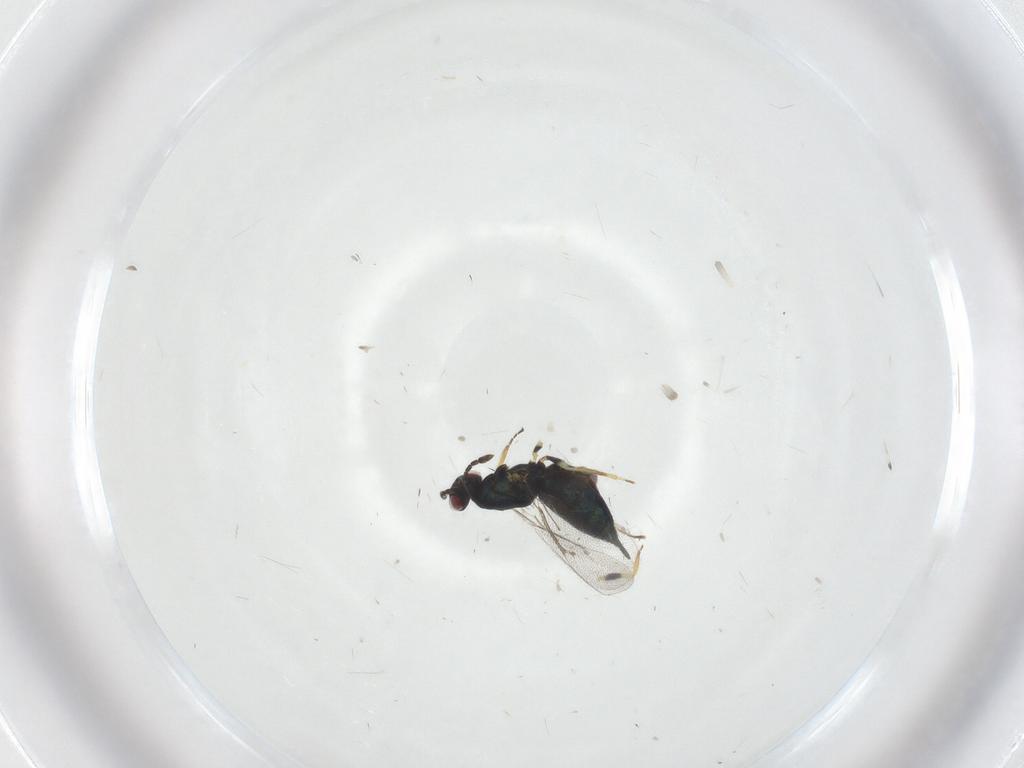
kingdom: Animalia
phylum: Arthropoda
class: Insecta
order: Hymenoptera
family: Eulophidae
